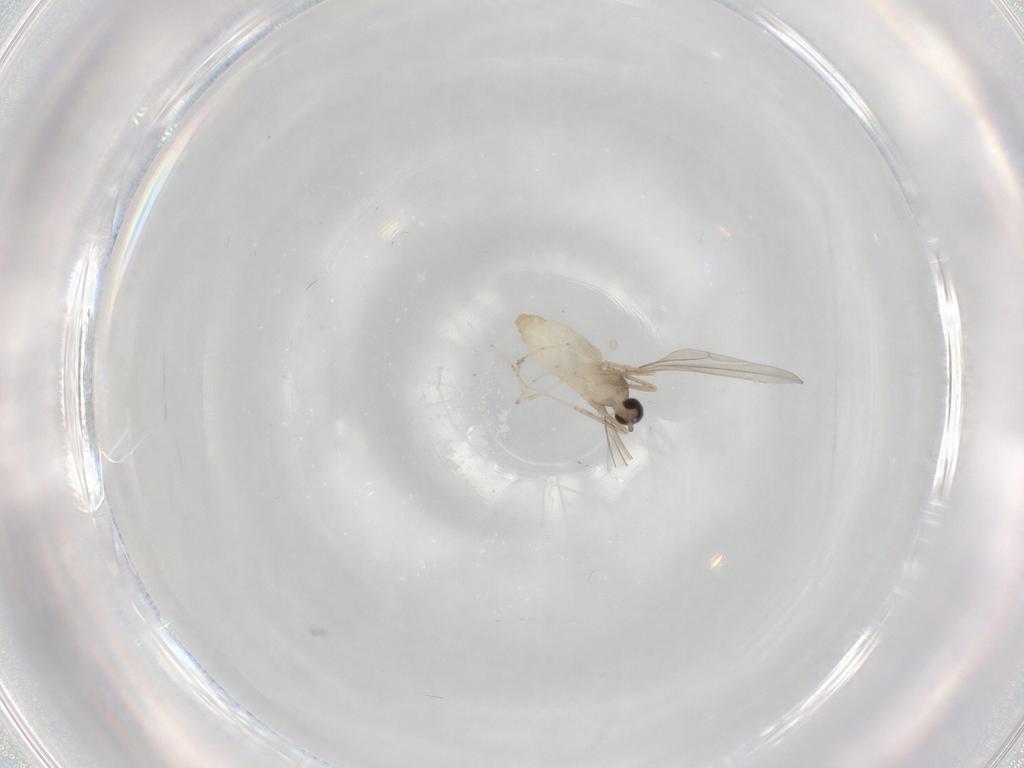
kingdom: Animalia
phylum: Arthropoda
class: Insecta
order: Diptera
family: Cecidomyiidae
